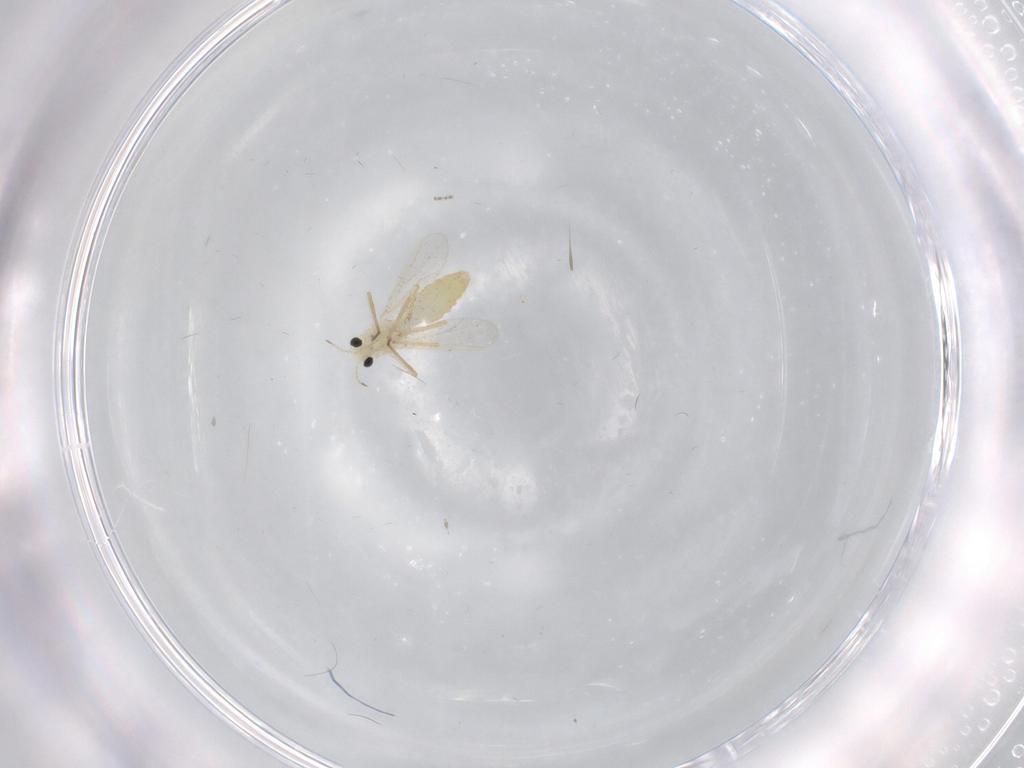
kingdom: Animalia
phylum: Arthropoda
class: Insecta
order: Diptera
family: Chironomidae
